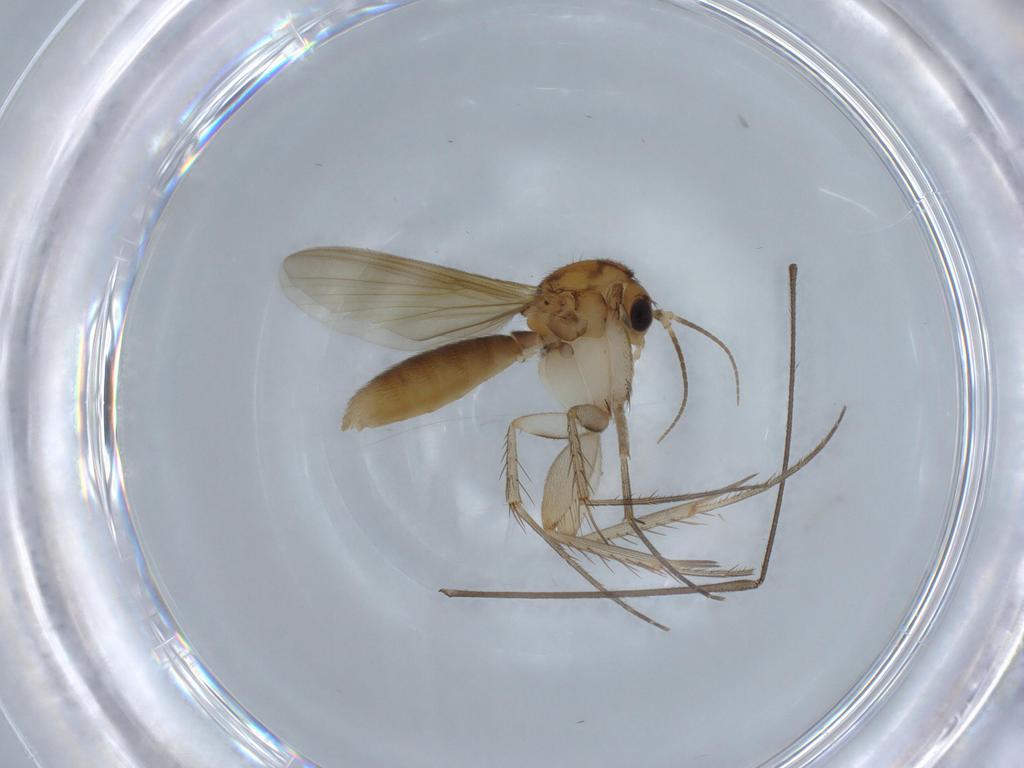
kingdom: Animalia
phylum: Arthropoda
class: Insecta
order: Diptera
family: Mycetophilidae
